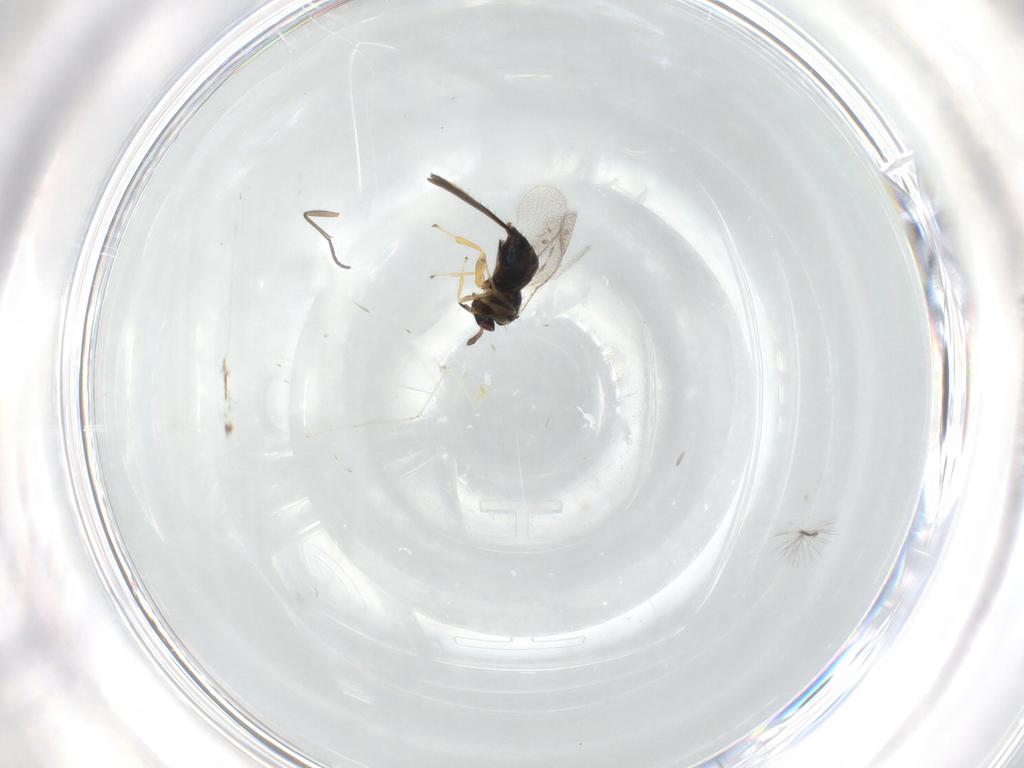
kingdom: Animalia
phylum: Arthropoda
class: Insecta
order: Hymenoptera
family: Torymidae
